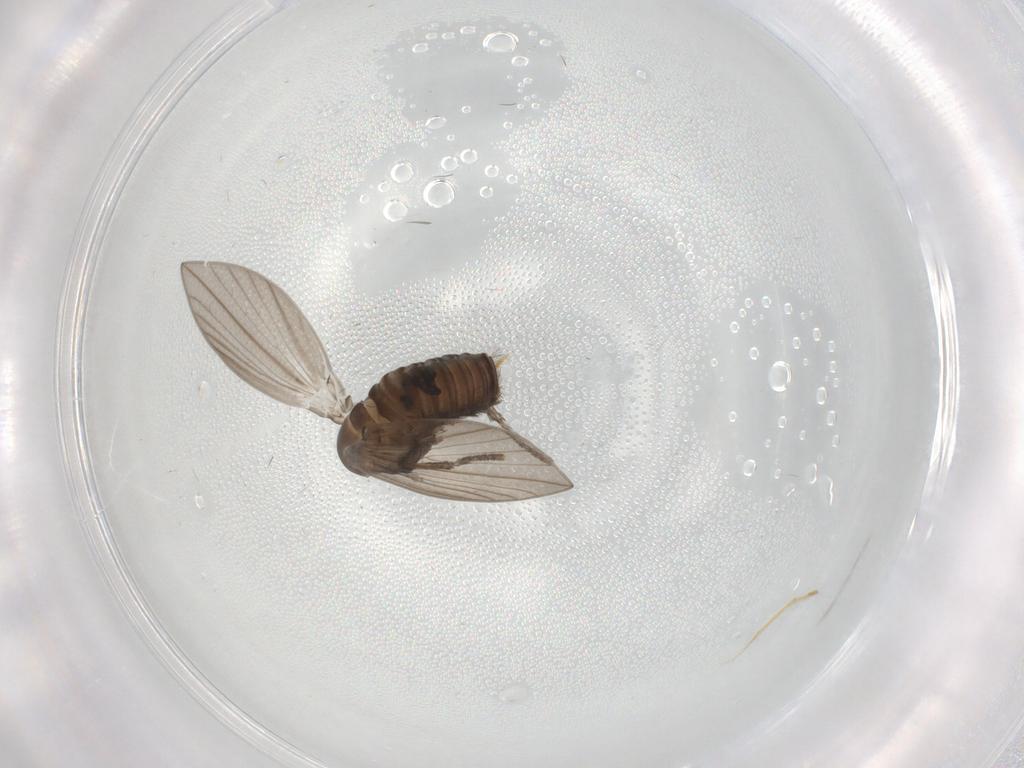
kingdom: Animalia
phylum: Arthropoda
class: Insecta
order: Diptera
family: Psychodidae
